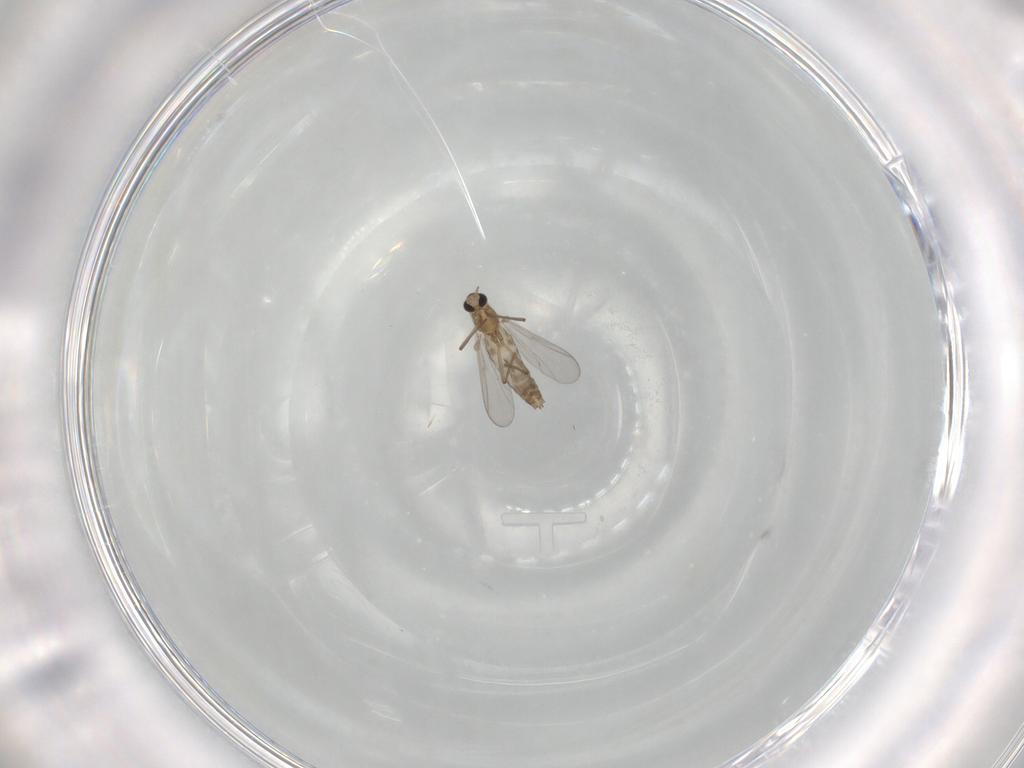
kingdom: Animalia
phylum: Arthropoda
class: Insecta
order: Diptera
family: Chironomidae
